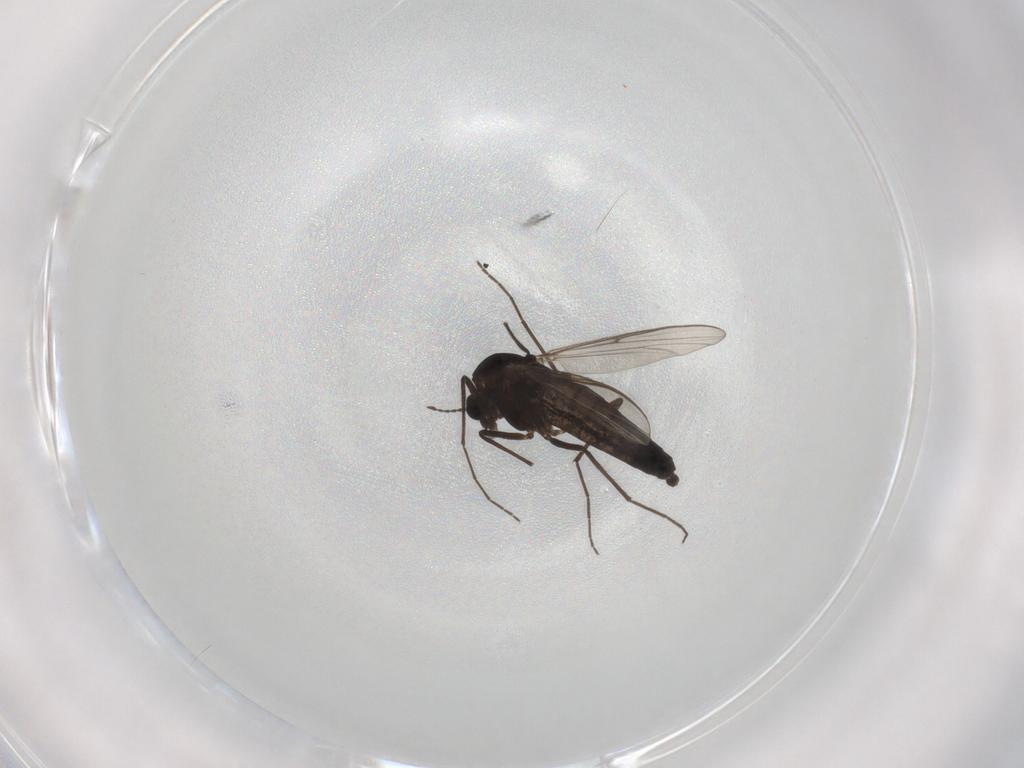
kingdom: Animalia
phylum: Arthropoda
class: Insecta
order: Diptera
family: Chironomidae
